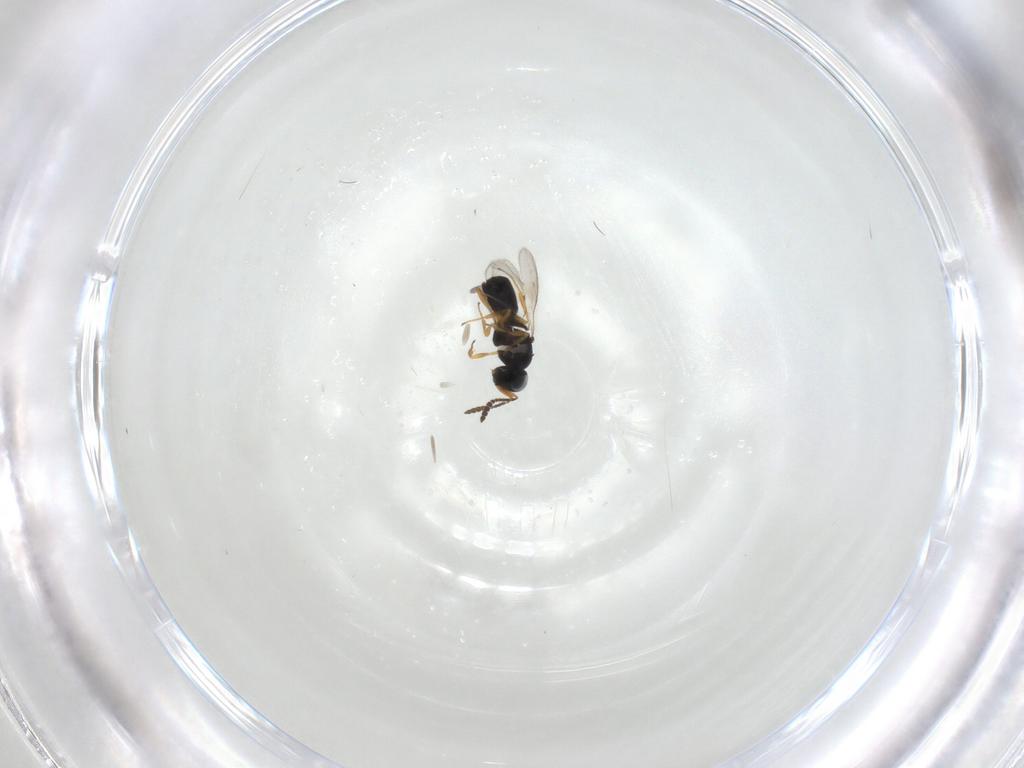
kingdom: Animalia
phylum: Arthropoda
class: Insecta
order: Hymenoptera
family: Scelionidae
